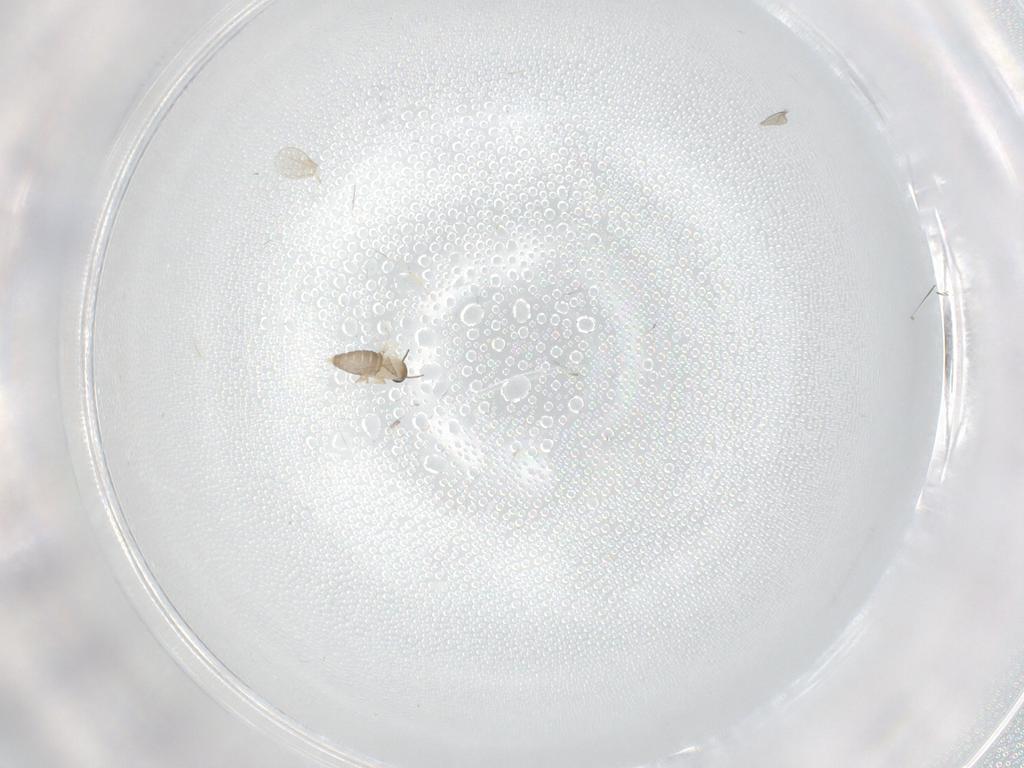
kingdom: Animalia
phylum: Arthropoda
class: Insecta
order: Diptera
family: Cecidomyiidae
